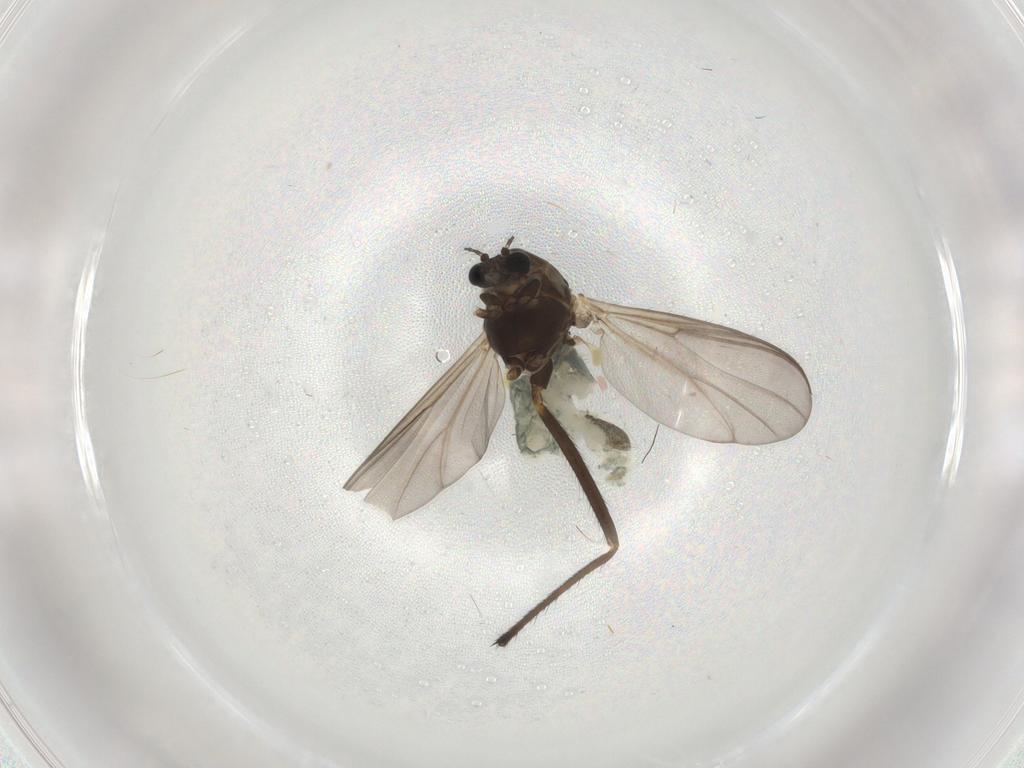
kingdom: Animalia
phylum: Arthropoda
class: Insecta
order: Diptera
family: Chironomidae
